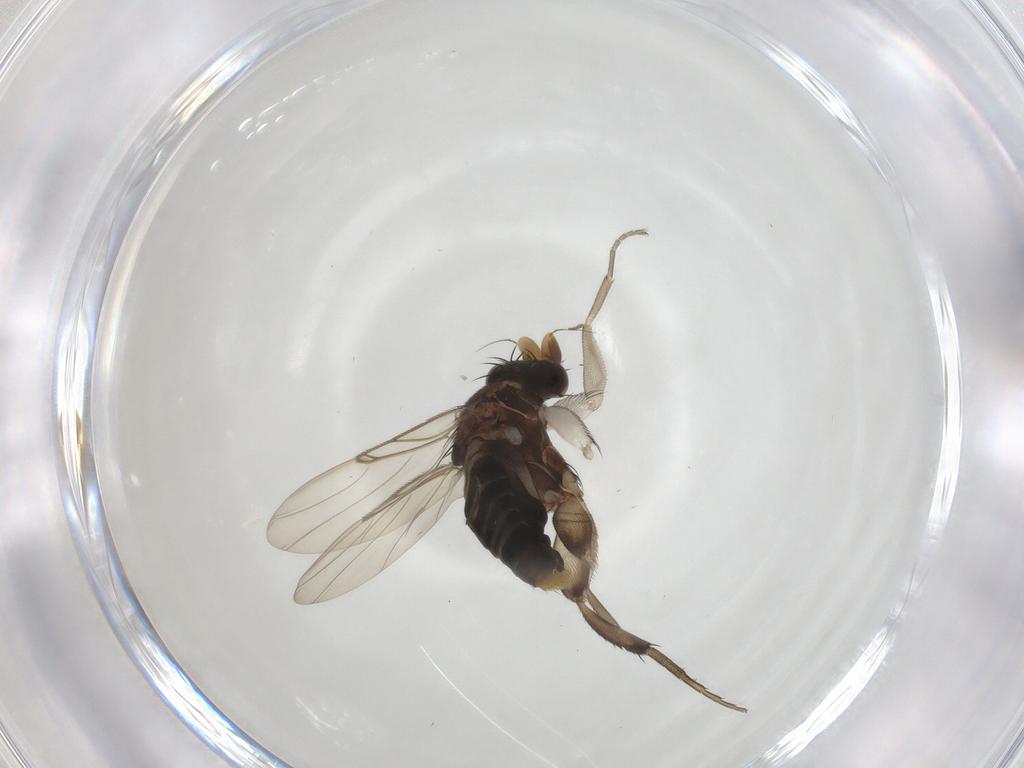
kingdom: Animalia
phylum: Arthropoda
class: Insecta
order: Diptera
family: Phoridae
